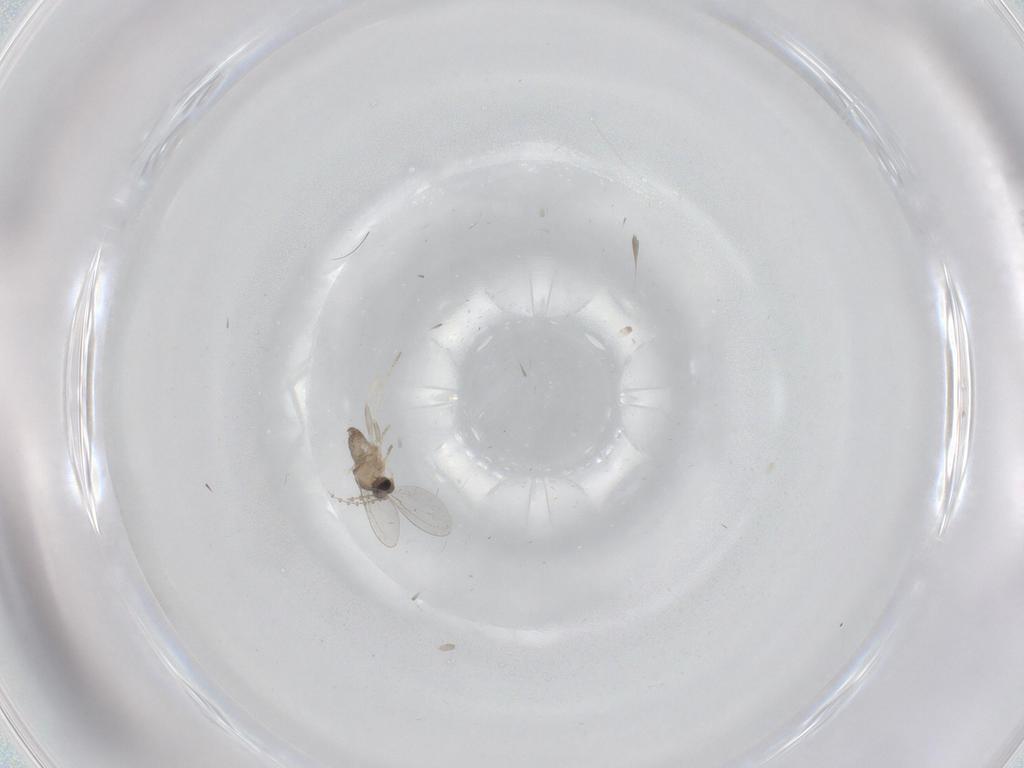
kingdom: Animalia
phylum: Arthropoda
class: Insecta
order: Diptera
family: Cecidomyiidae
